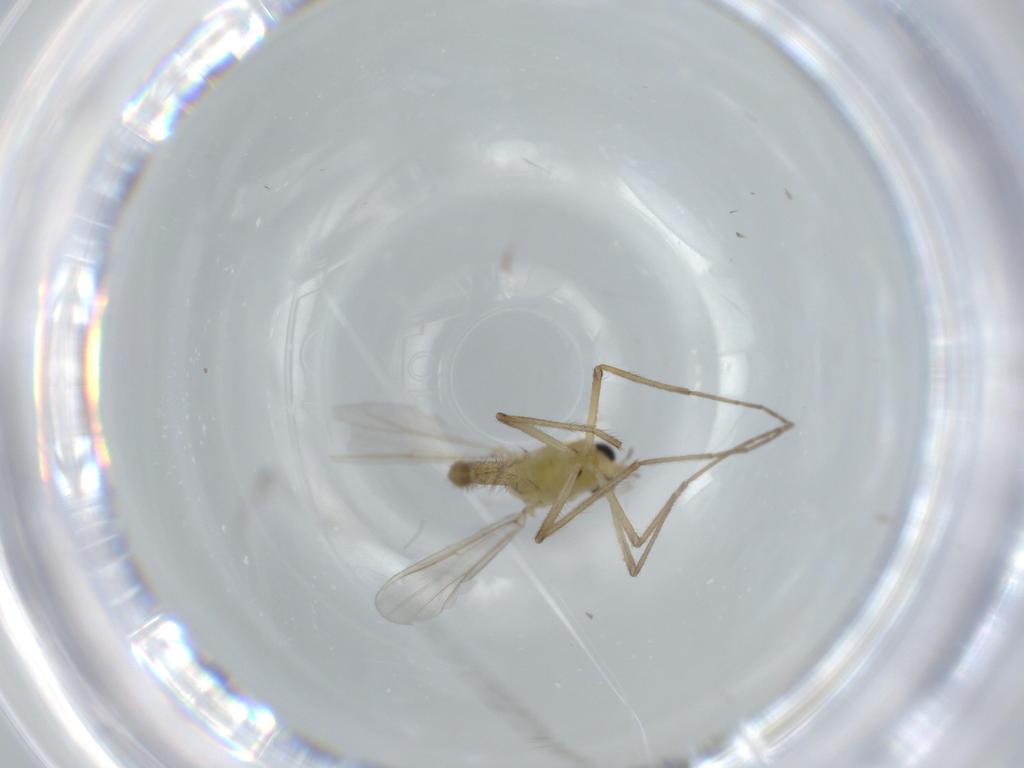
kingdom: Animalia
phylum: Arthropoda
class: Insecta
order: Diptera
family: Chironomidae
